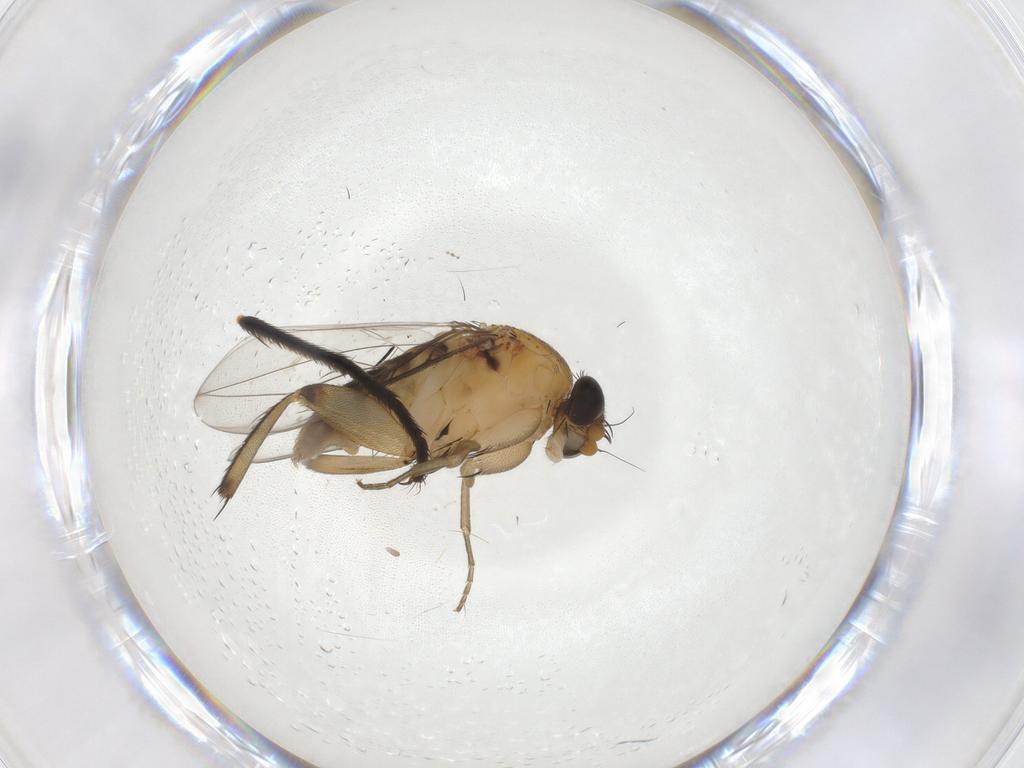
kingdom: Animalia
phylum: Arthropoda
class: Insecta
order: Diptera
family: Phoridae
